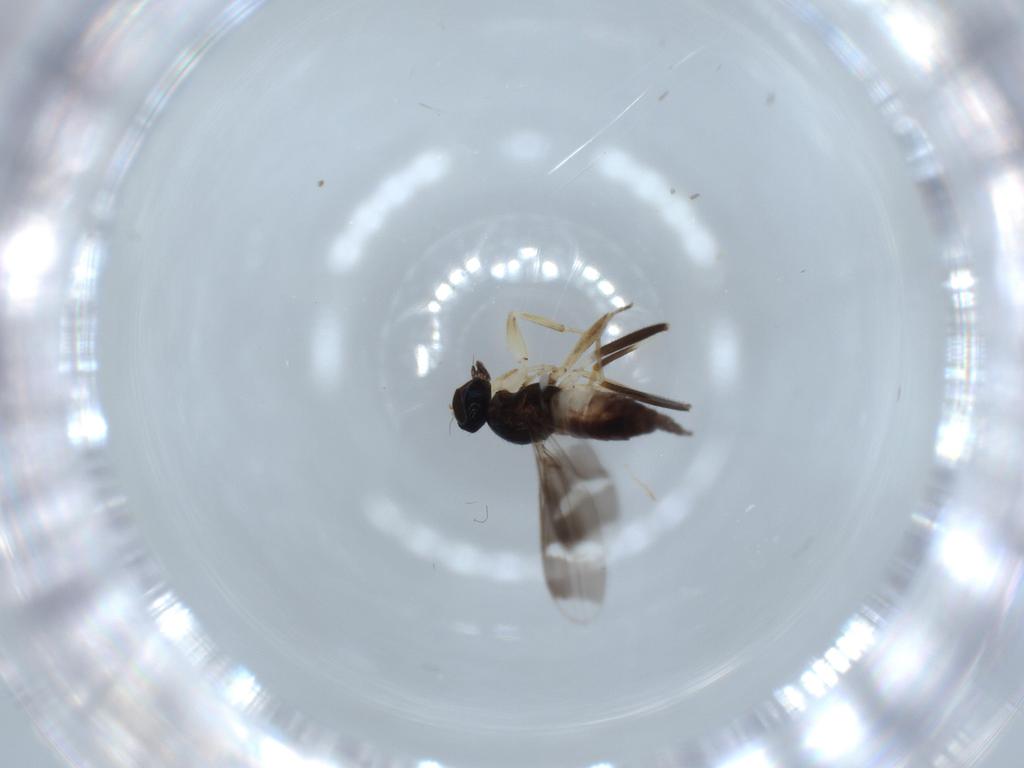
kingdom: Animalia
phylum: Arthropoda
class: Insecta
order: Diptera
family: Hybotidae
